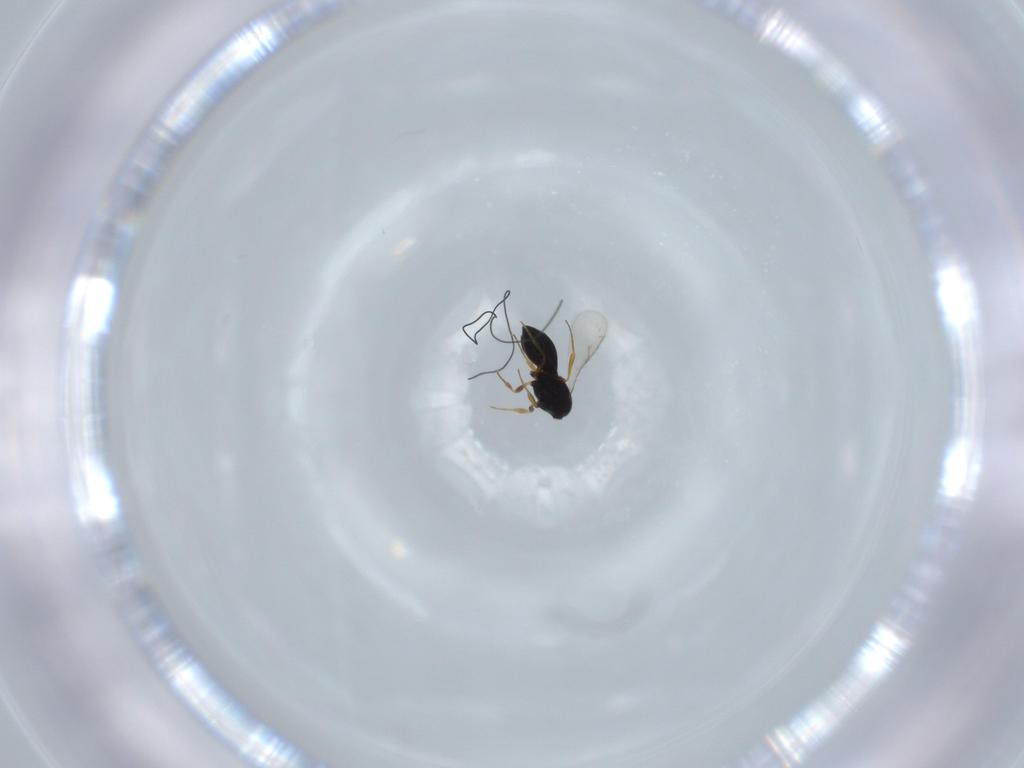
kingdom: Animalia
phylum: Arthropoda
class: Insecta
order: Hymenoptera
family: Scelionidae
